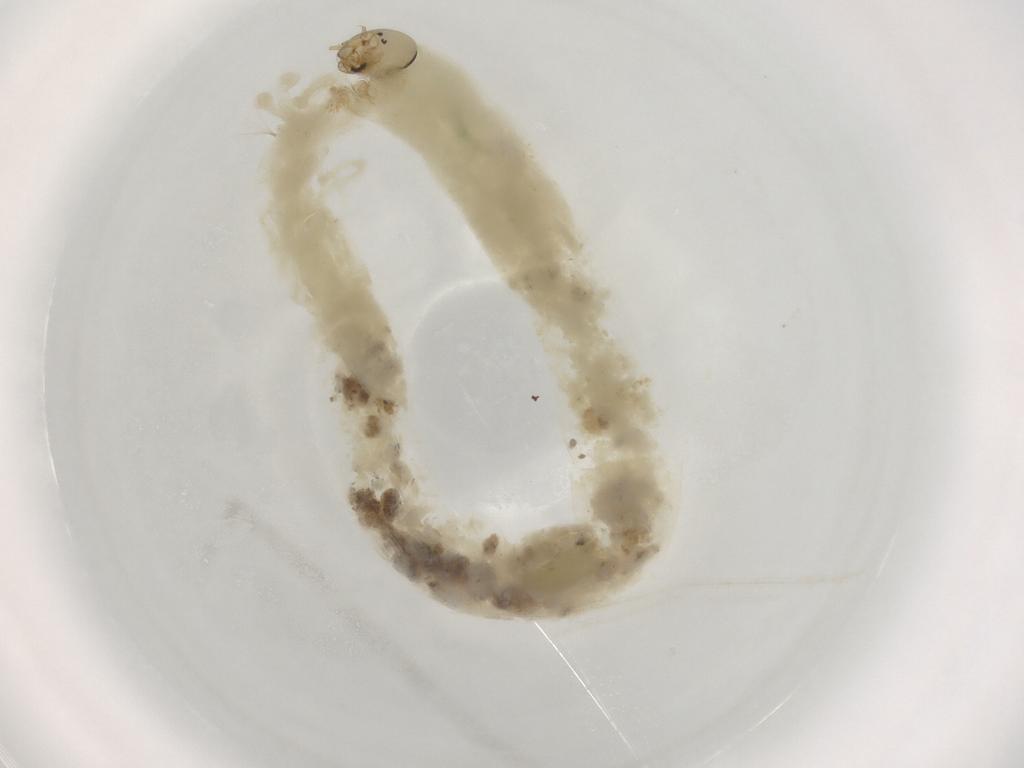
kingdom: Animalia
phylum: Arthropoda
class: Insecta
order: Diptera
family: Chironomidae
